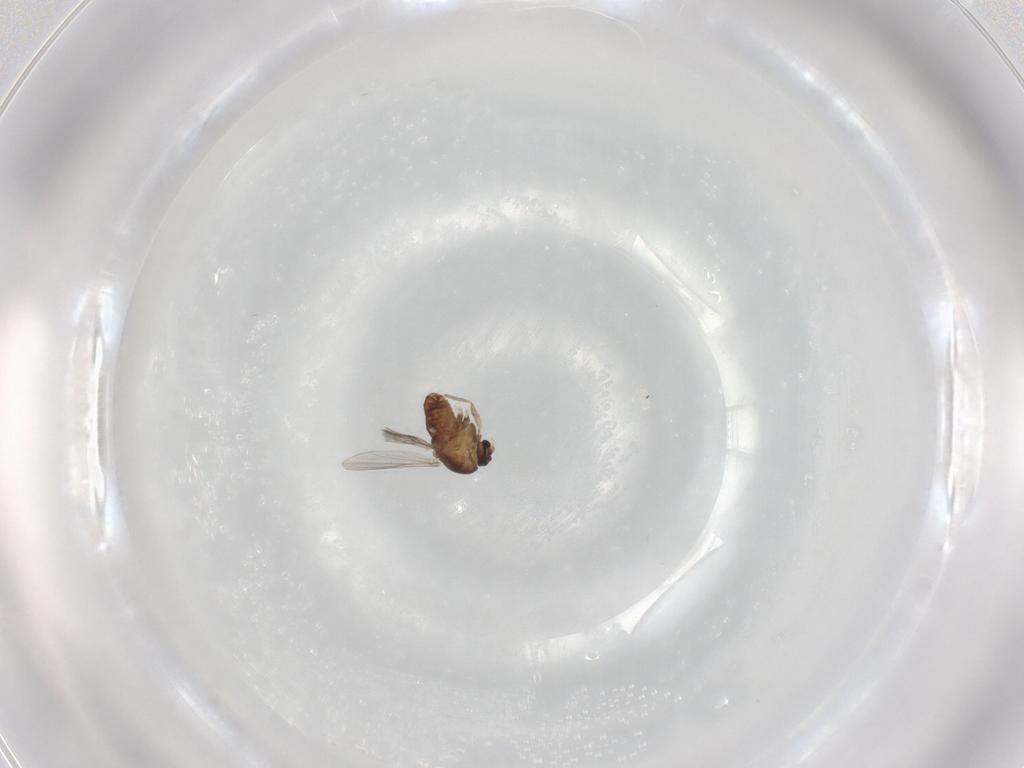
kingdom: Animalia
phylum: Arthropoda
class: Insecta
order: Diptera
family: Chironomidae
